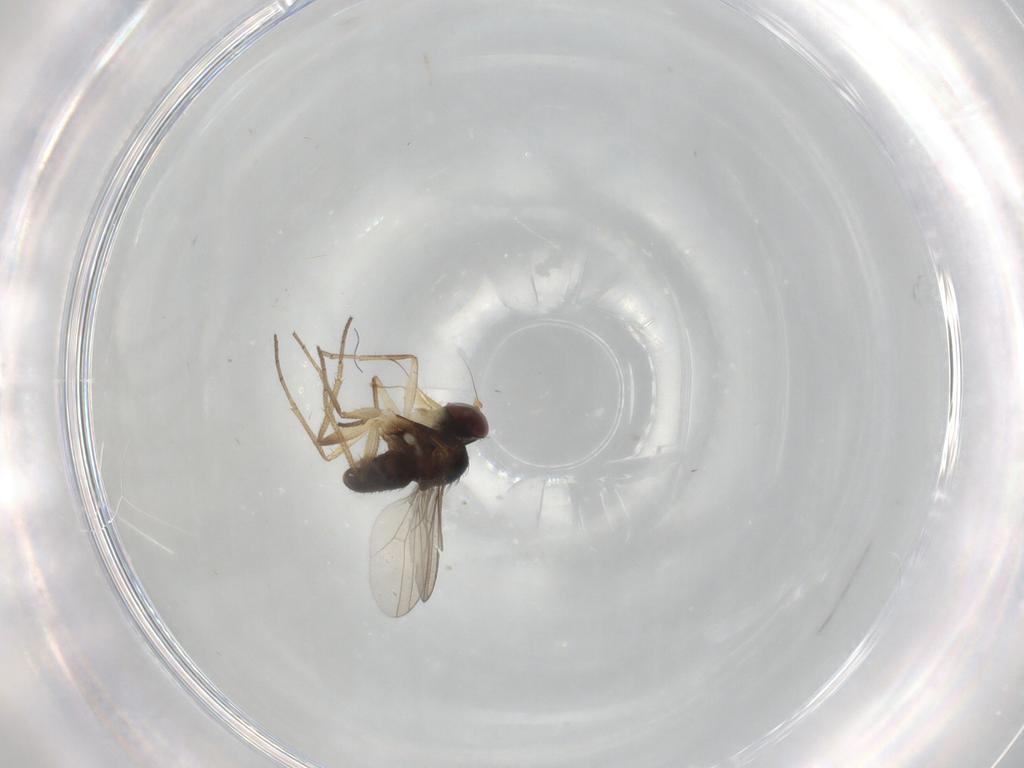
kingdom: Animalia
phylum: Arthropoda
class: Insecta
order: Diptera
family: Dolichopodidae
